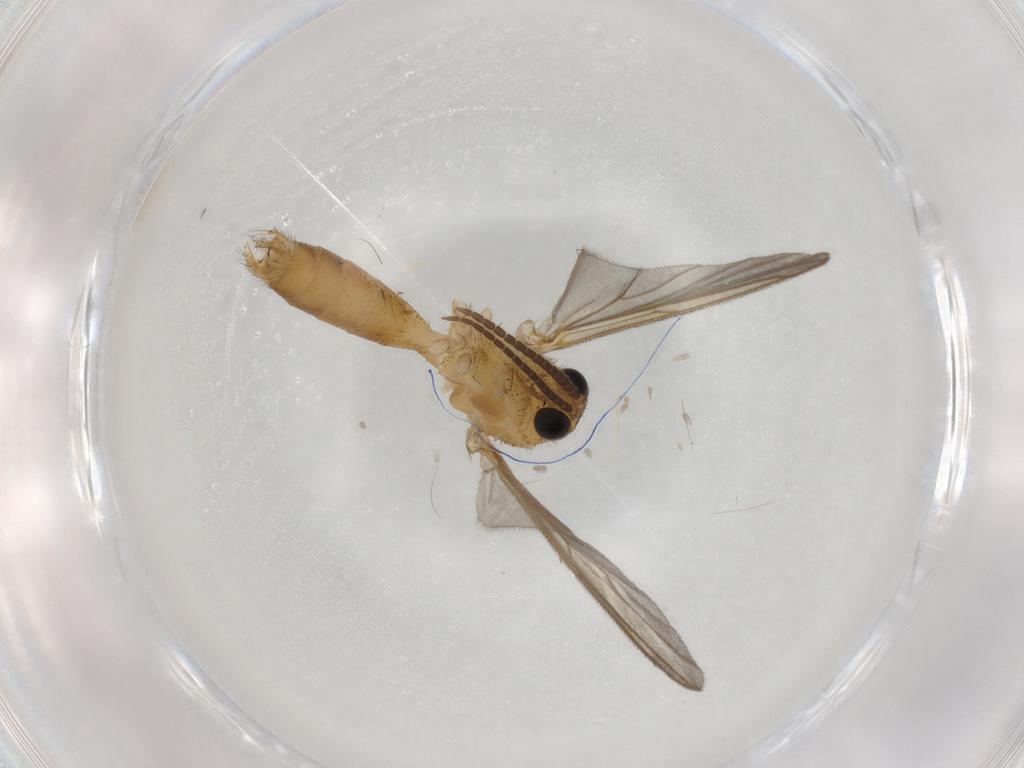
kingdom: Animalia
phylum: Arthropoda
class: Insecta
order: Diptera
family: Mycetophilidae
